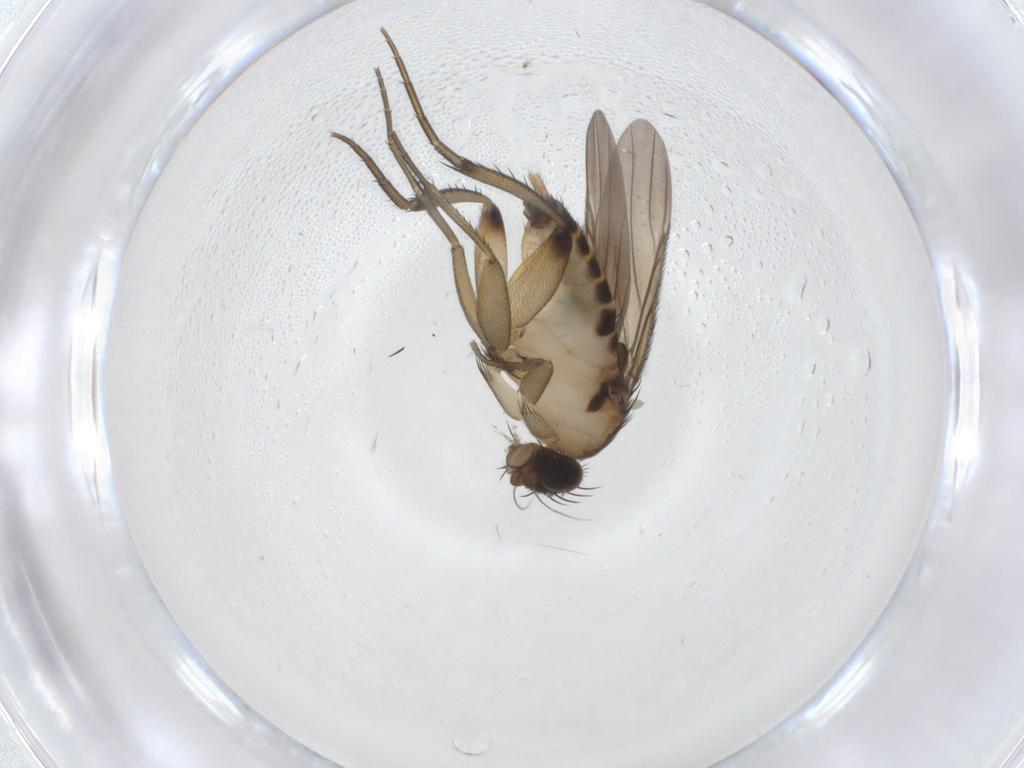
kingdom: Animalia
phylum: Arthropoda
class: Insecta
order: Diptera
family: Phoridae
